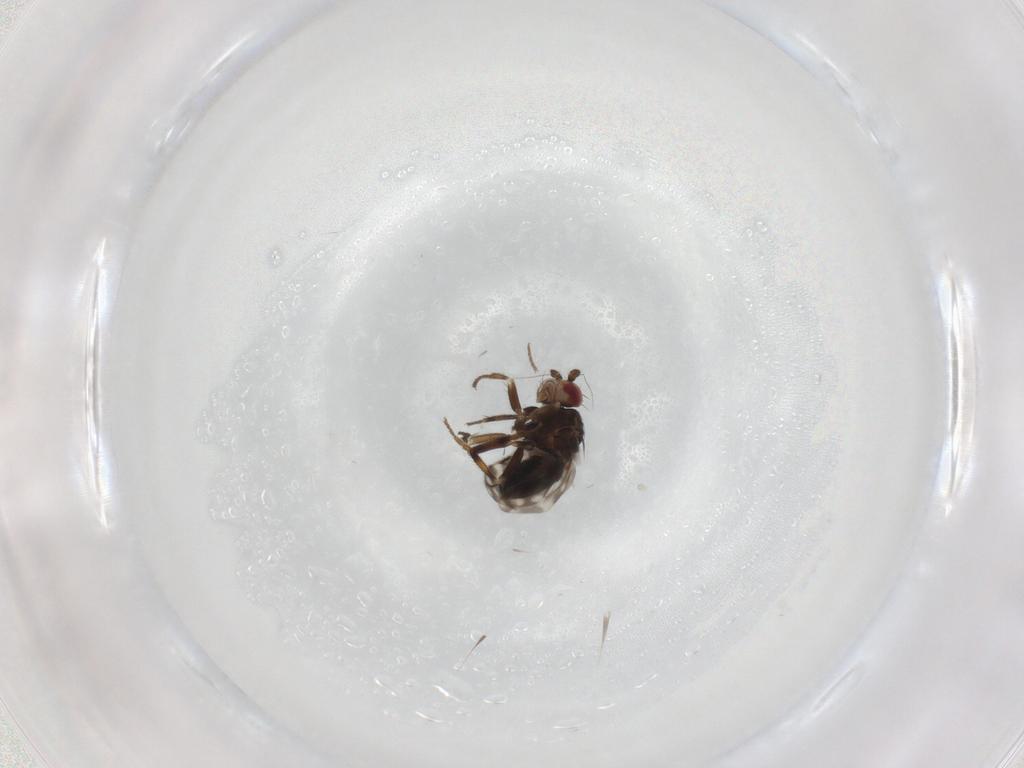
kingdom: Animalia
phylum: Arthropoda
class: Insecta
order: Diptera
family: Sphaeroceridae
